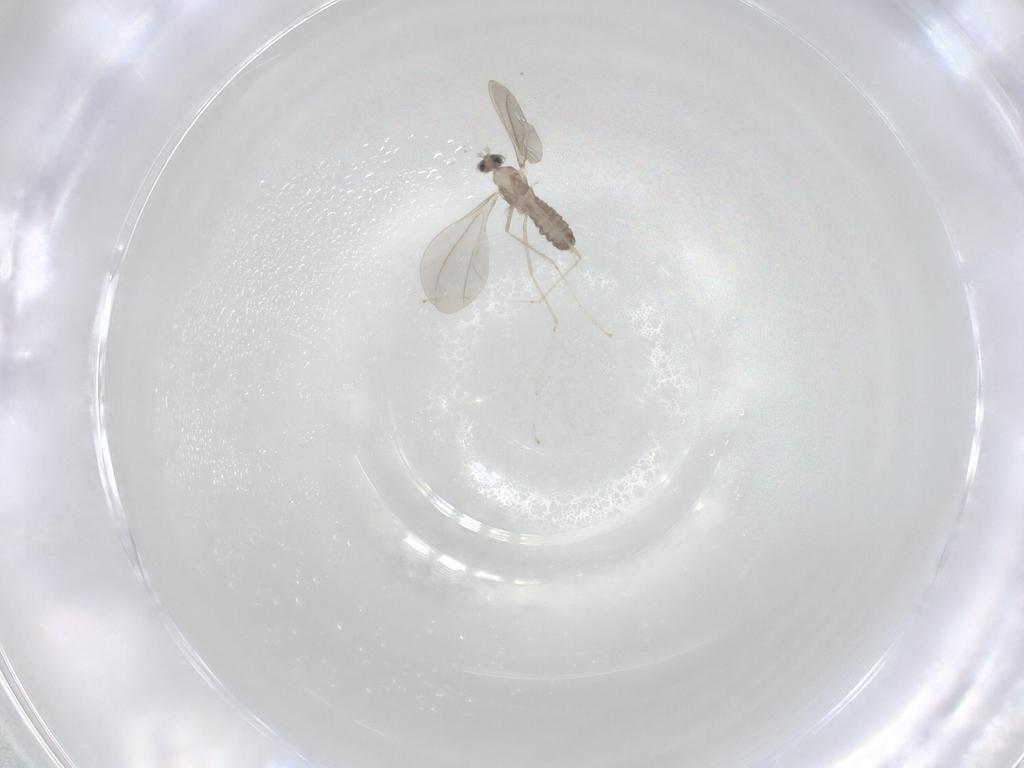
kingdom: Animalia
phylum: Arthropoda
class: Insecta
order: Diptera
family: Cecidomyiidae
